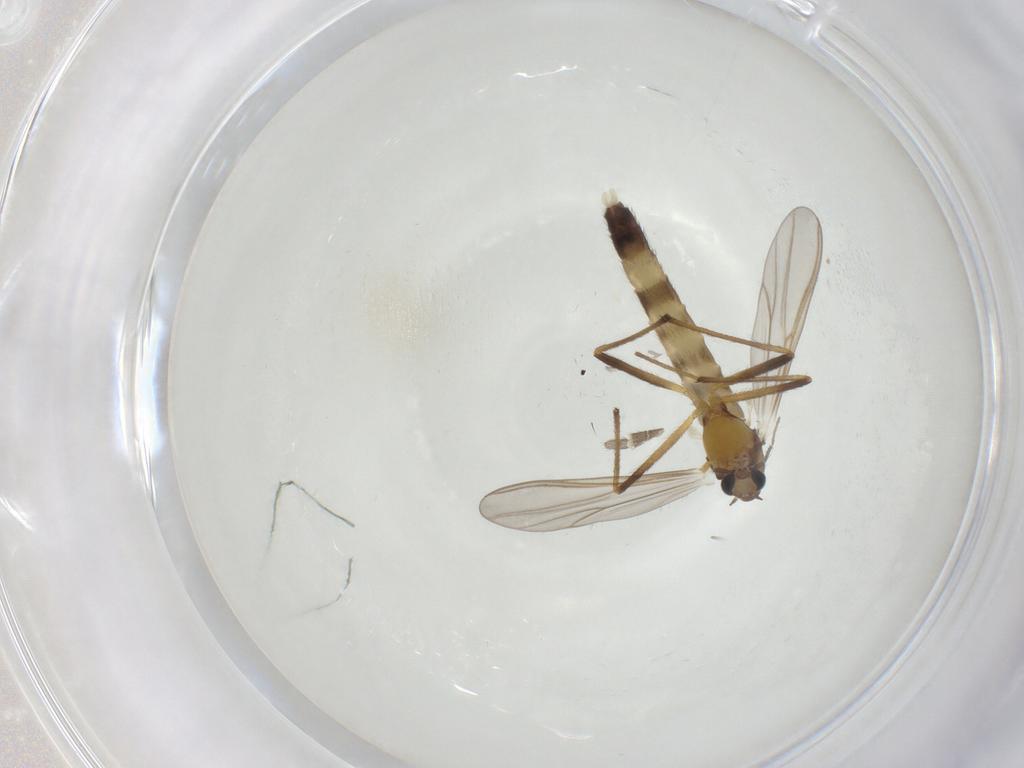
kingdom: Animalia
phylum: Arthropoda
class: Insecta
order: Diptera
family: Chironomidae
